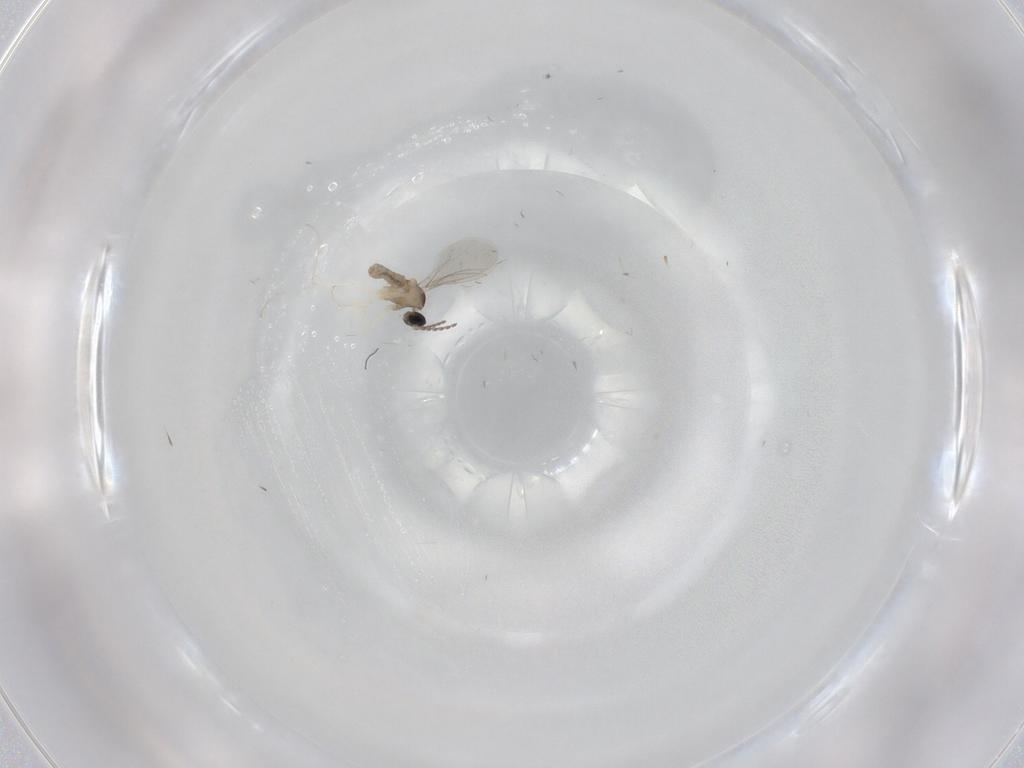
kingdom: Animalia
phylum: Arthropoda
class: Insecta
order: Diptera
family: Cecidomyiidae
